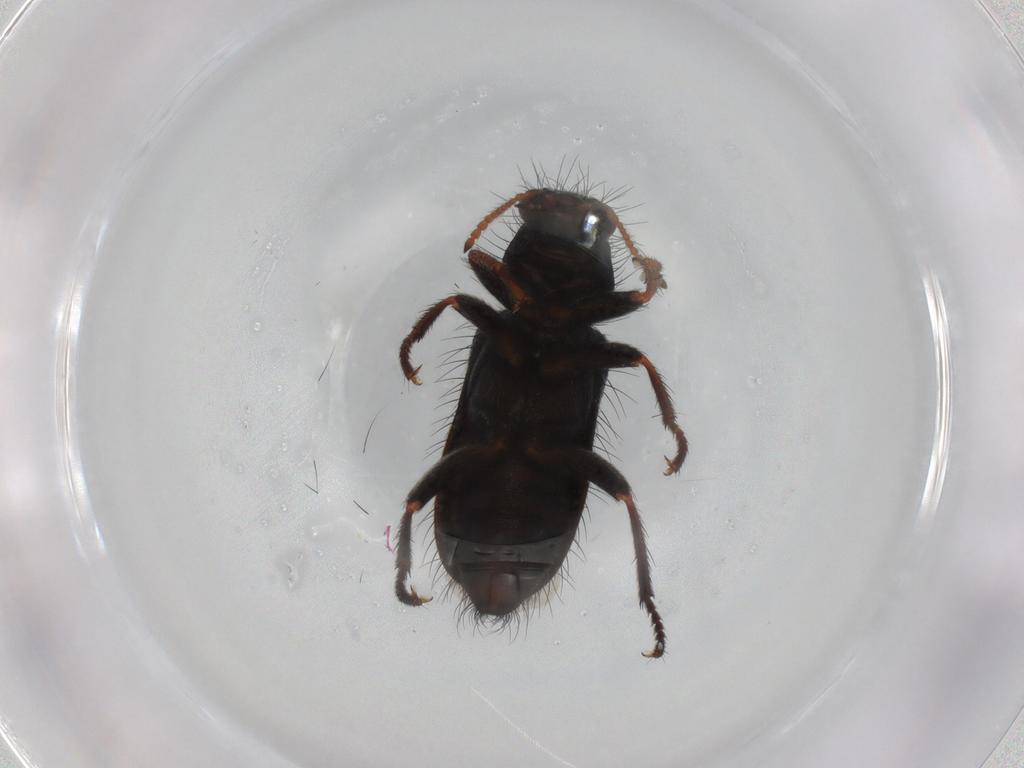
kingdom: Animalia
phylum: Arthropoda
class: Insecta
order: Coleoptera
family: Melyridae
